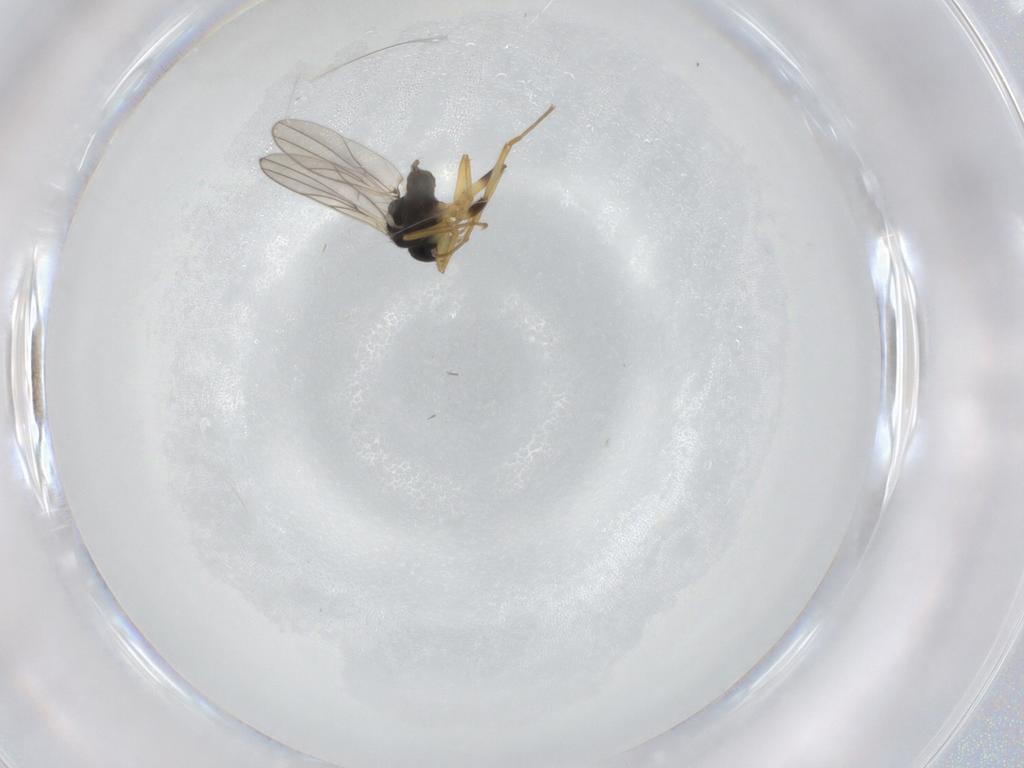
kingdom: Animalia
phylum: Arthropoda
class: Insecta
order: Diptera
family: Hybotidae
